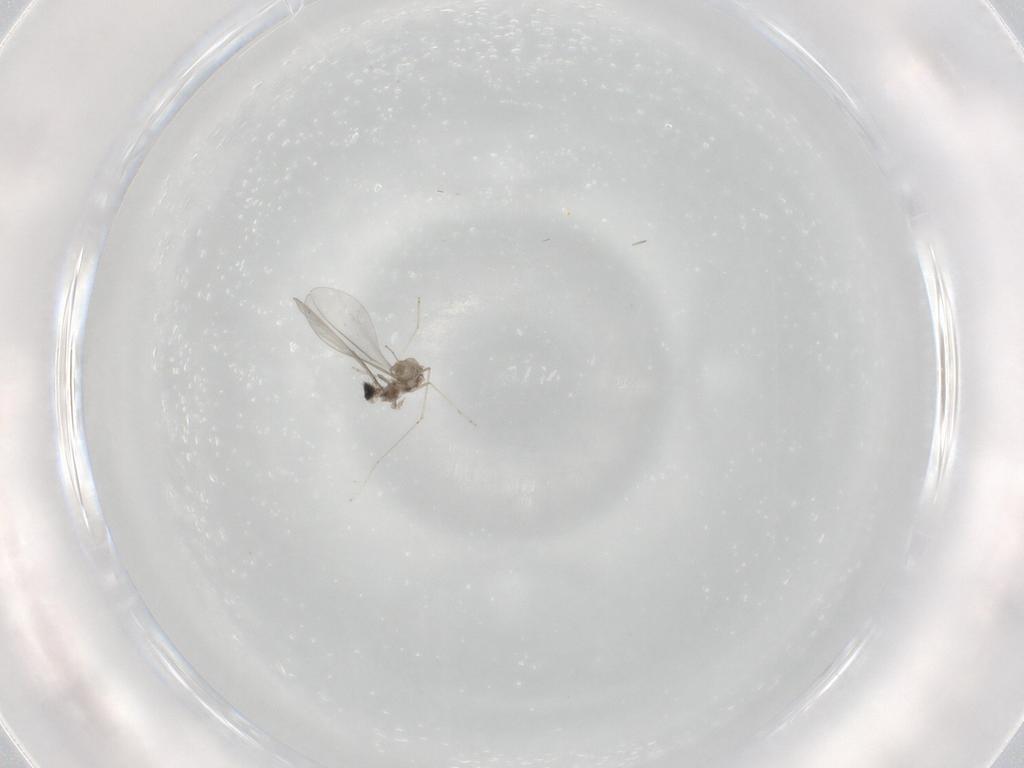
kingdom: Animalia
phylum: Arthropoda
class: Insecta
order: Diptera
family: Cecidomyiidae
